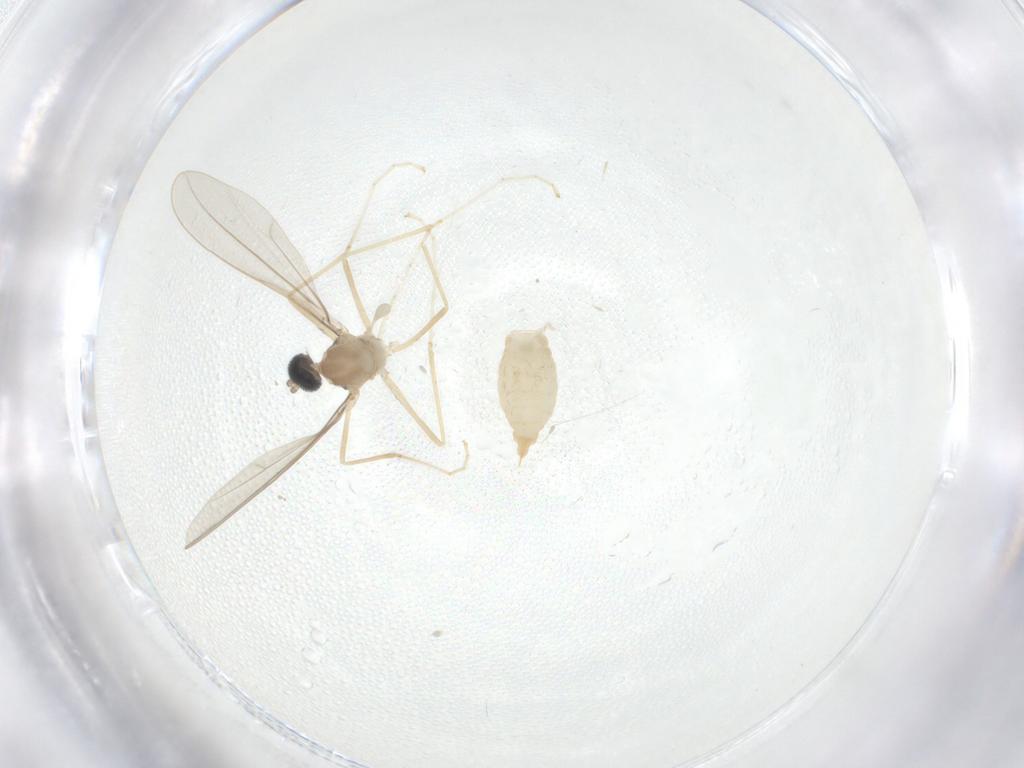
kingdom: Animalia
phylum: Arthropoda
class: Insecta
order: Diptera
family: Cecidomyiidae
